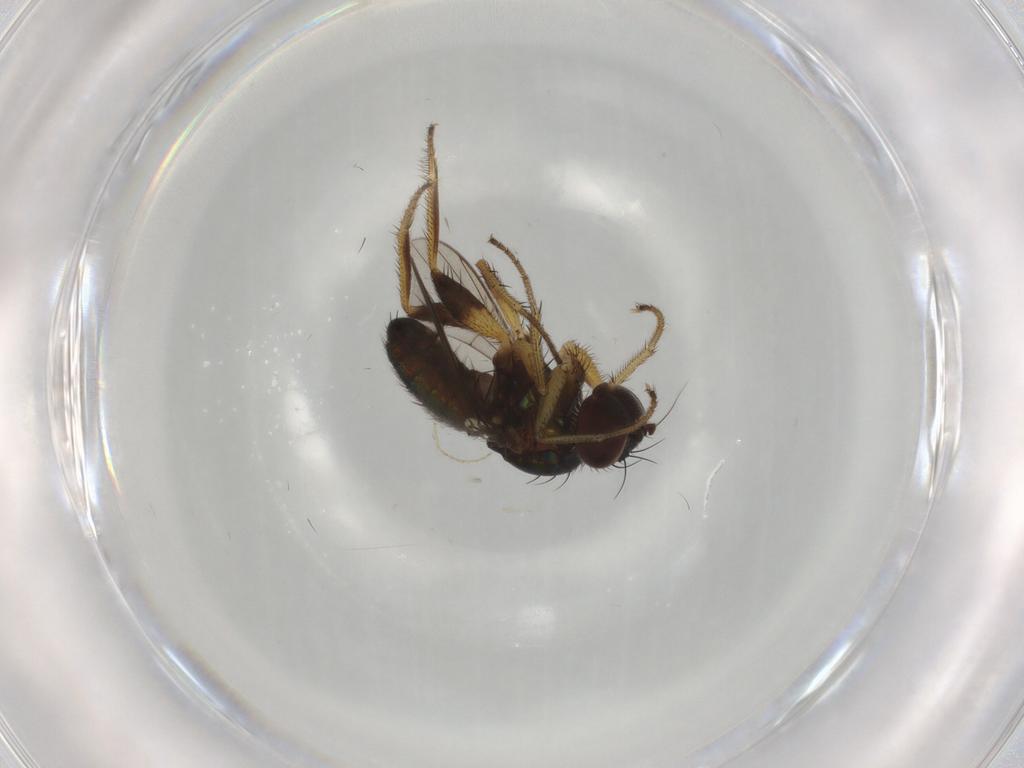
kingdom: Animalia
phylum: Arthropoda
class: Insecta
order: Diptera
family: Dolichopodidae
